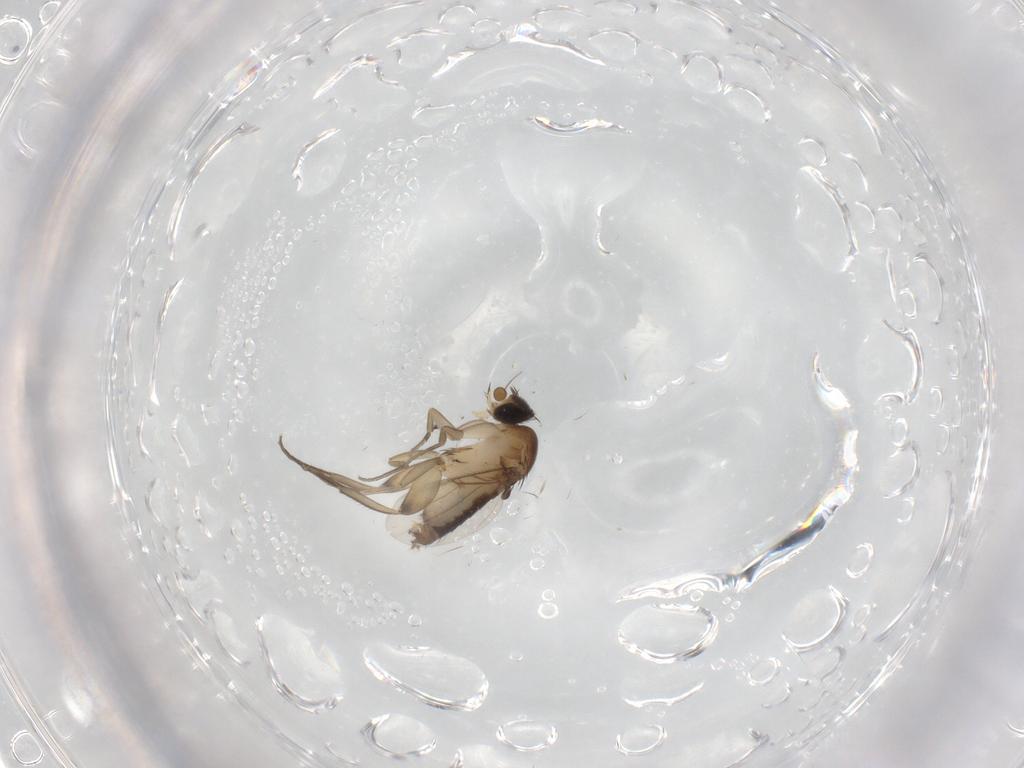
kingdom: Animalia
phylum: Arthropoda
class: Insecta
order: Diptera
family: Phoridae
